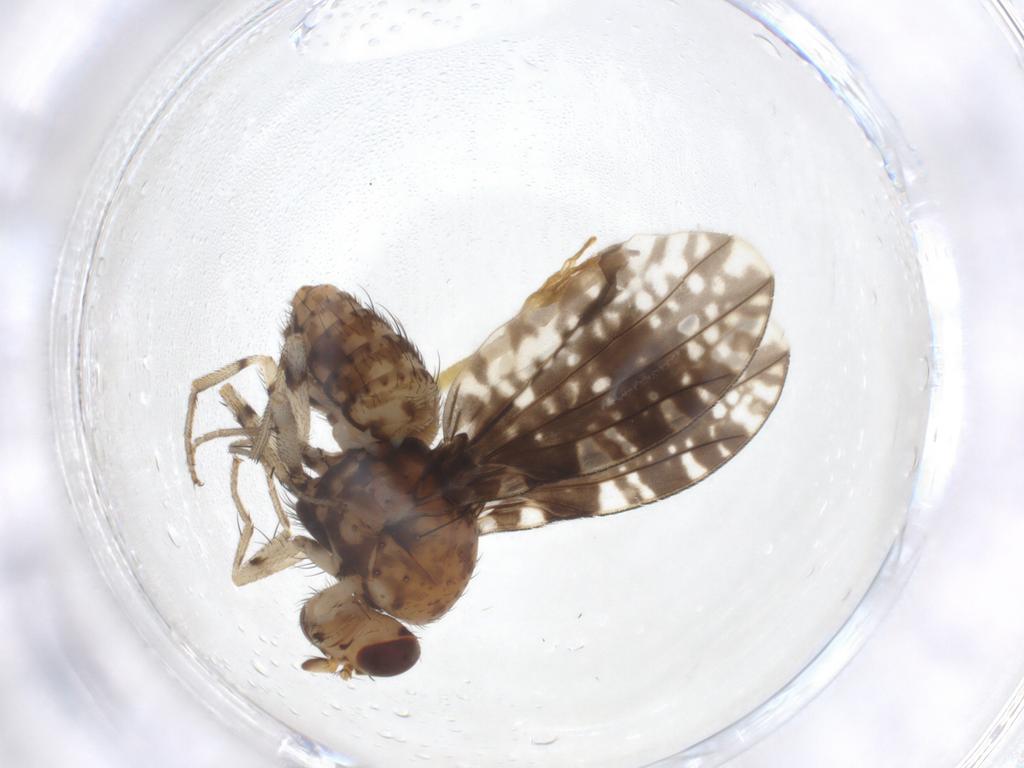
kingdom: Animalia
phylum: Arthropoda
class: Insecta
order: Diptera
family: Lauxaniidae
